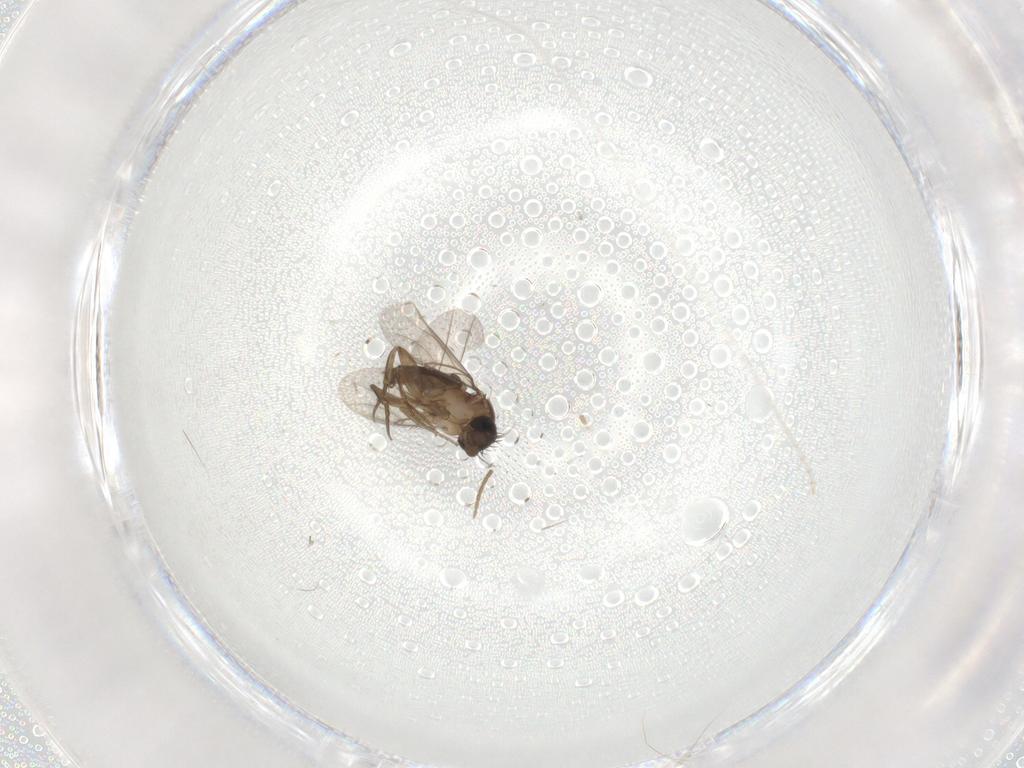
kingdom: Animalia
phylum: Arthropoda
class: Insecta
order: Diptera
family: Phoridae
